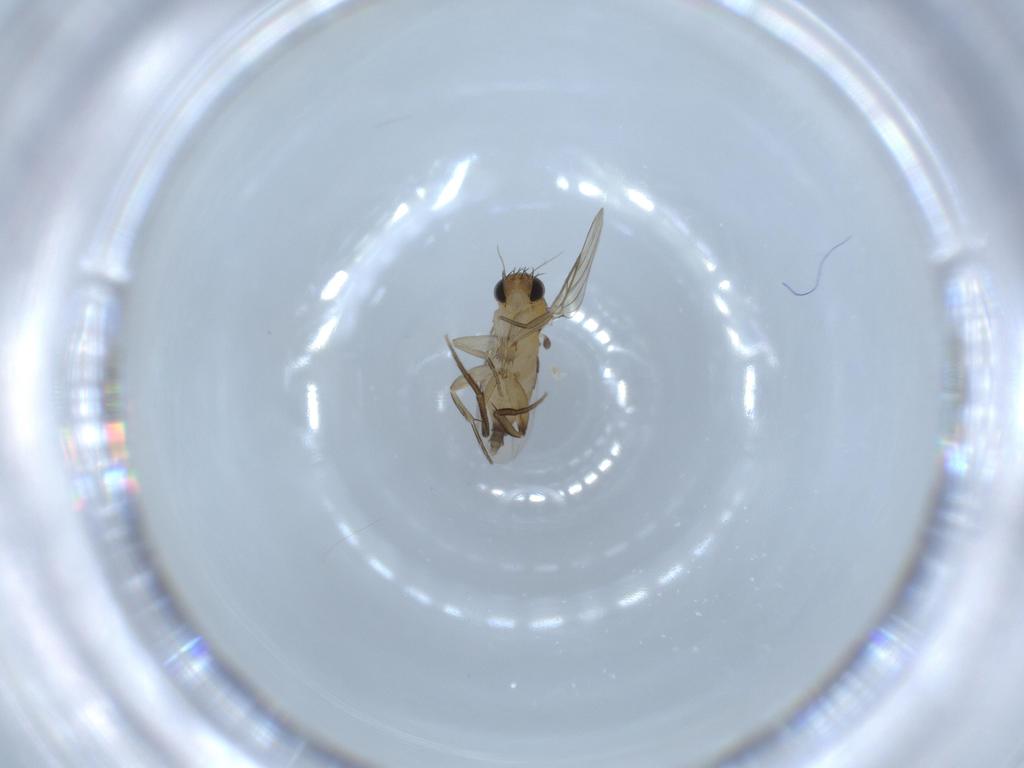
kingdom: Animalia
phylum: Arthropoda
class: Insecta
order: Diptera
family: Phoridae
